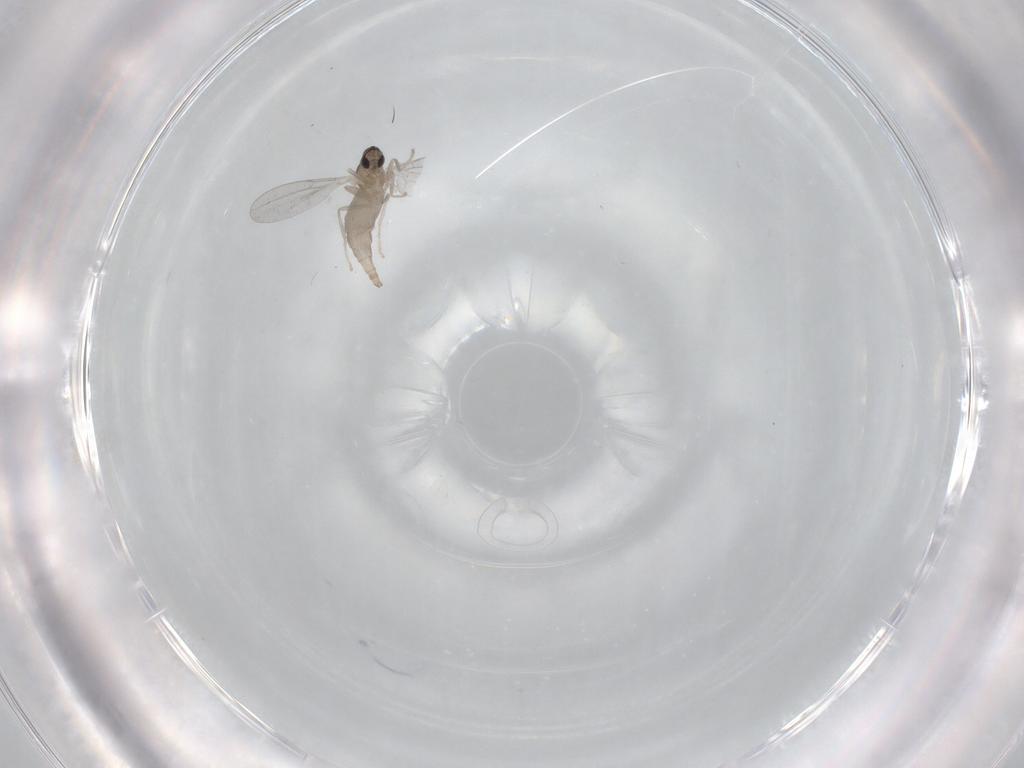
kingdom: Animalia
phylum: Arthropoda
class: Insecta
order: Diptera
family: Cecidomyiidae
